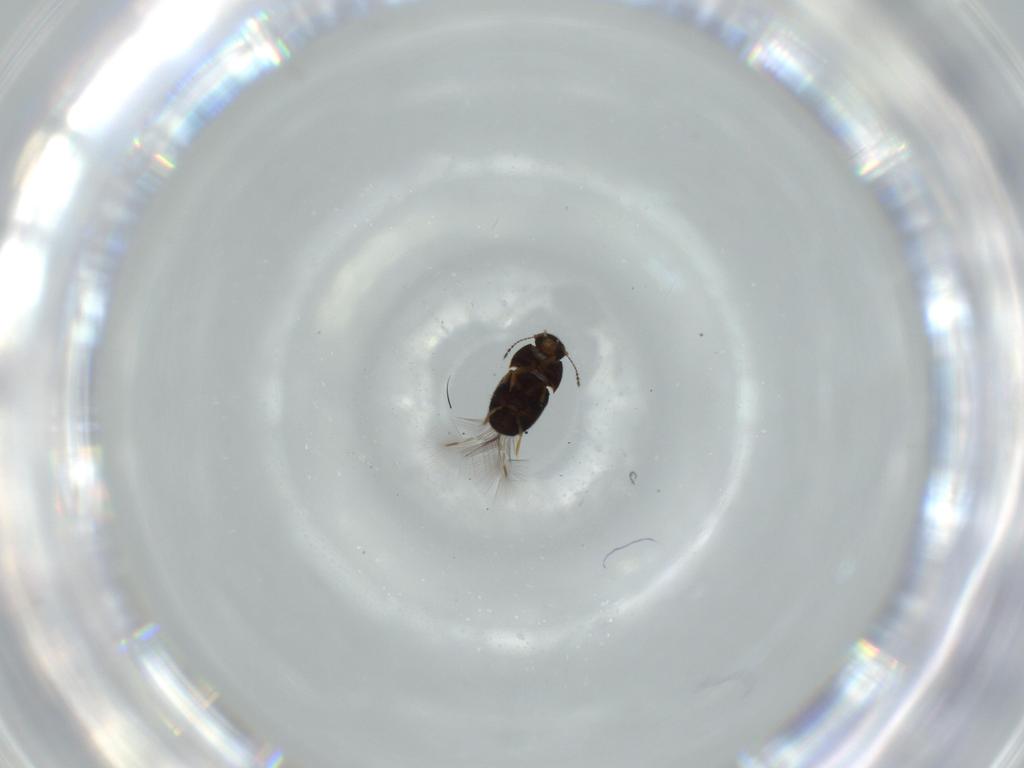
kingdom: Animalia
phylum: Arthropoda
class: Insecta
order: Coleoptera
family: Ptiliidae
